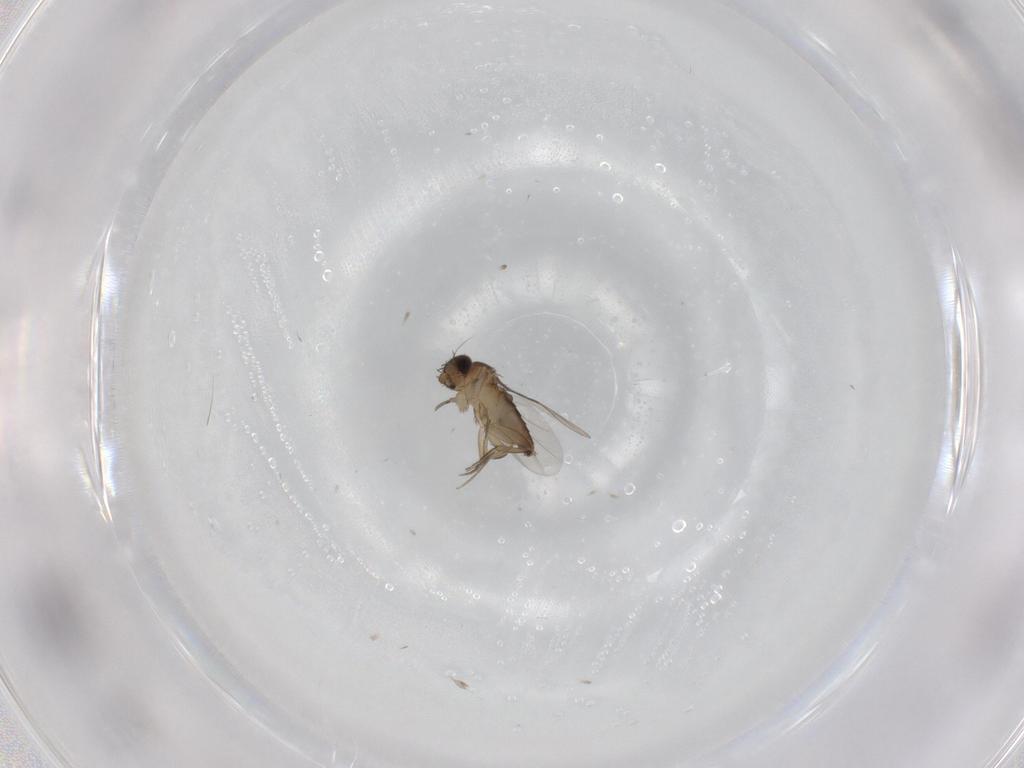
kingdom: Animalia
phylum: Arthropoda
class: Insecta
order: Diptera
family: Phoridae
